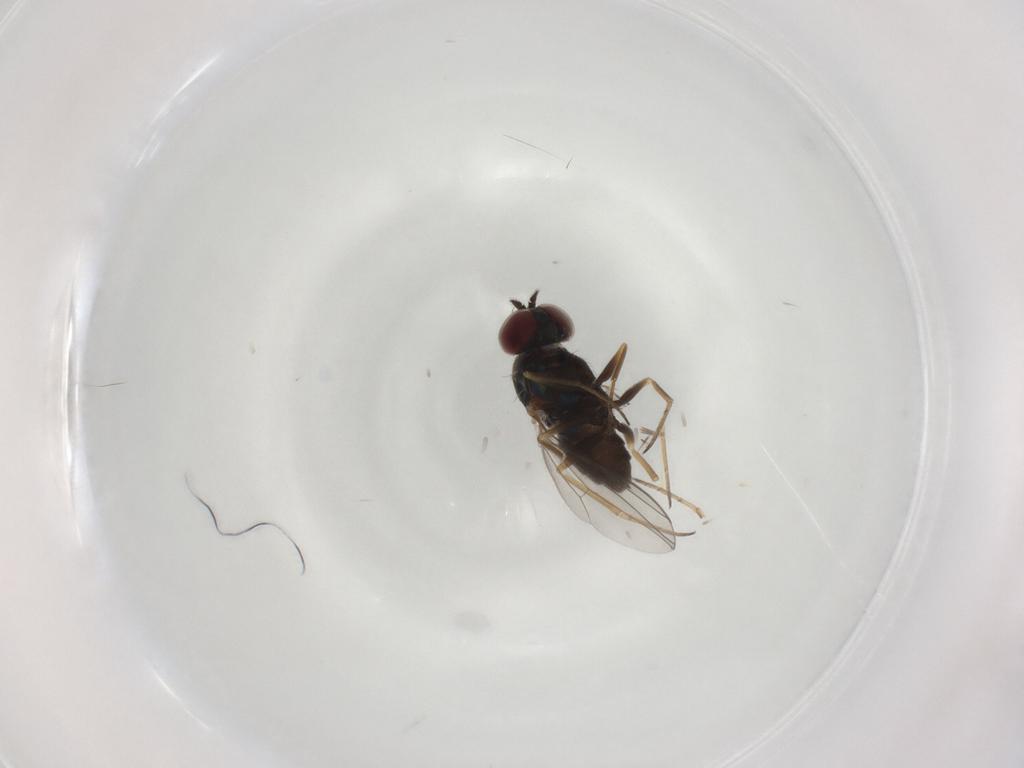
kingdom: Animalia
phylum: Arthropoda
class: Insecta
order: Diptera
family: Dolichopodidae
